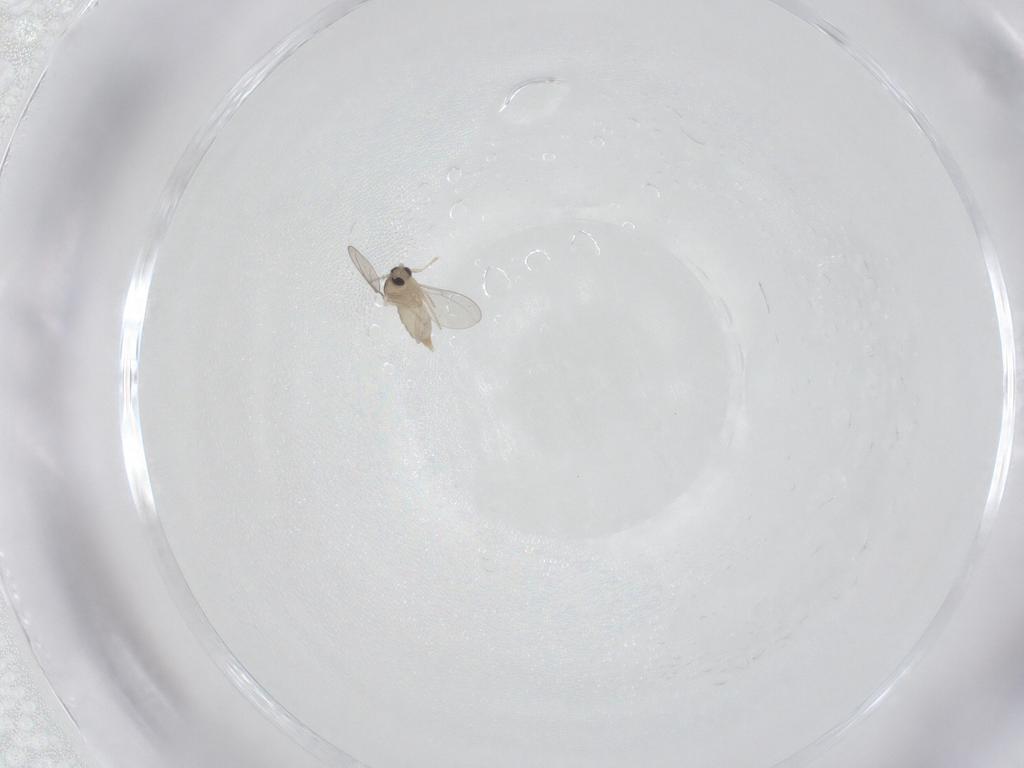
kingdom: Animalia
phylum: Arthropoda
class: Insecta
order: Diptera
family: Cecidomyiidae
